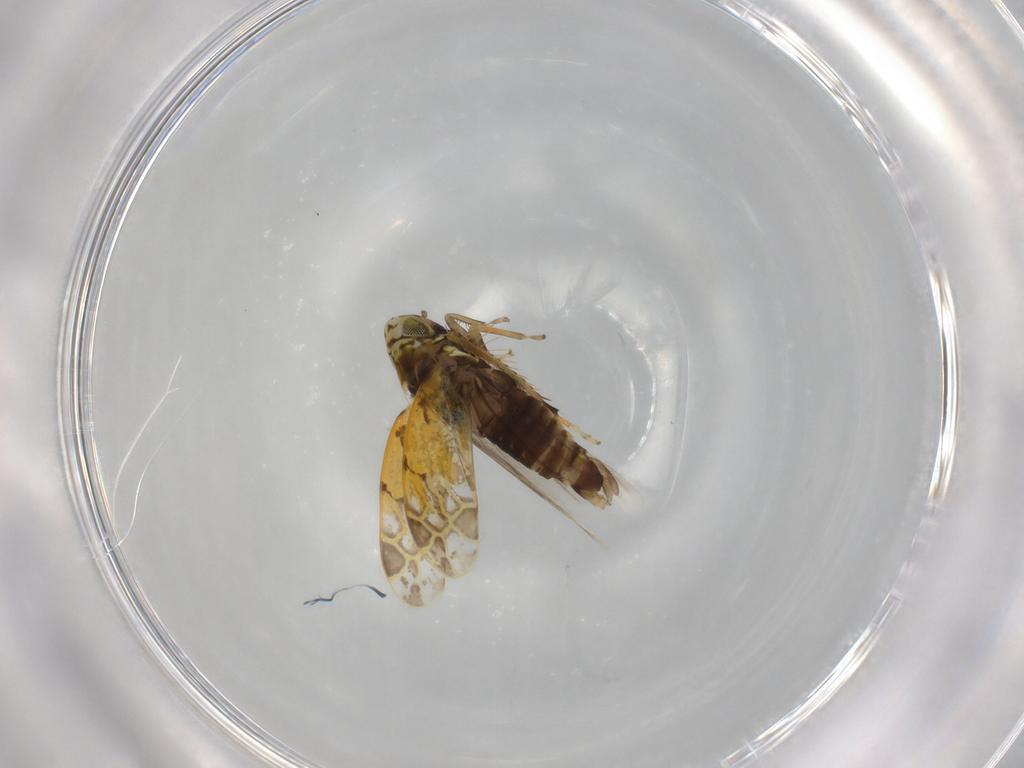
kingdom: Animalia
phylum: Arthropoda
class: Insecta
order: Hemiptera
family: Cicadellidae
